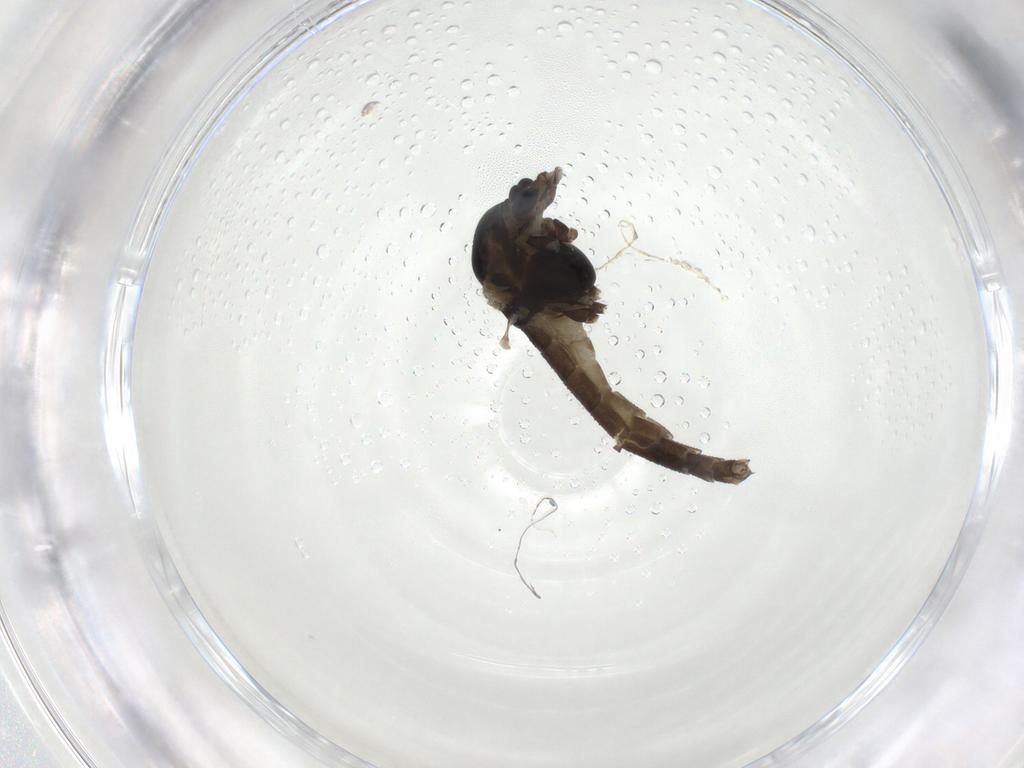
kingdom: Animalia
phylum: Arthropoda
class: Insecta
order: Diptera
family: Chironomidae
